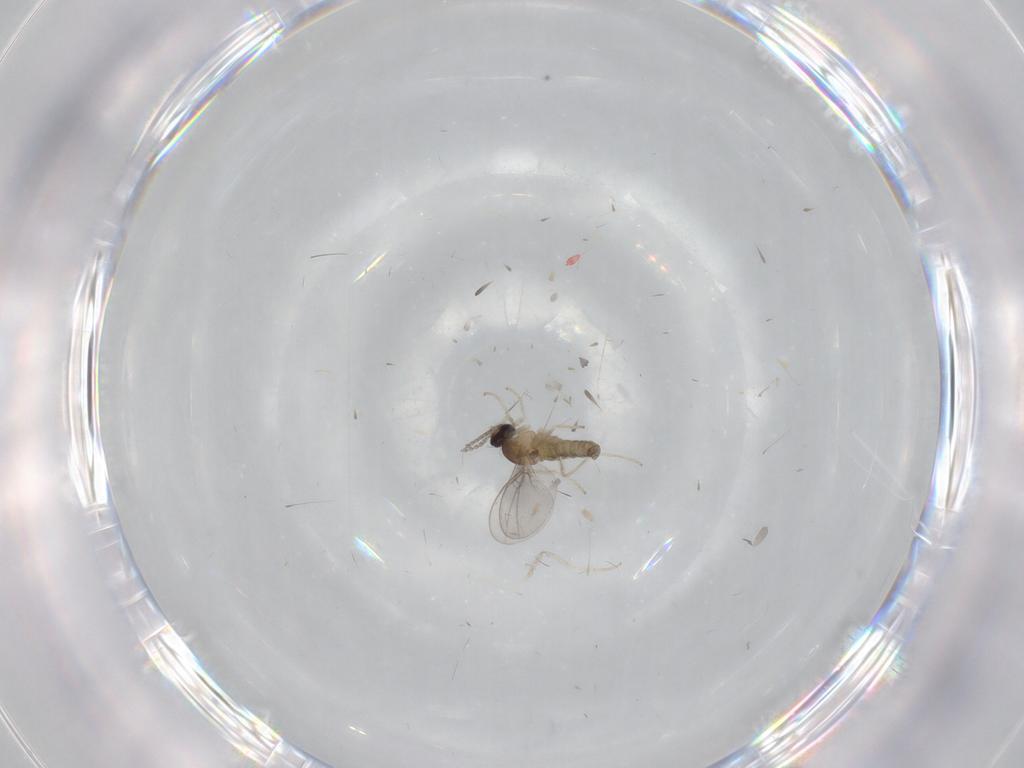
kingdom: Animalia
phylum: Arthropoda
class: Insecta
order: Diptera
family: Cecidomyiidae
